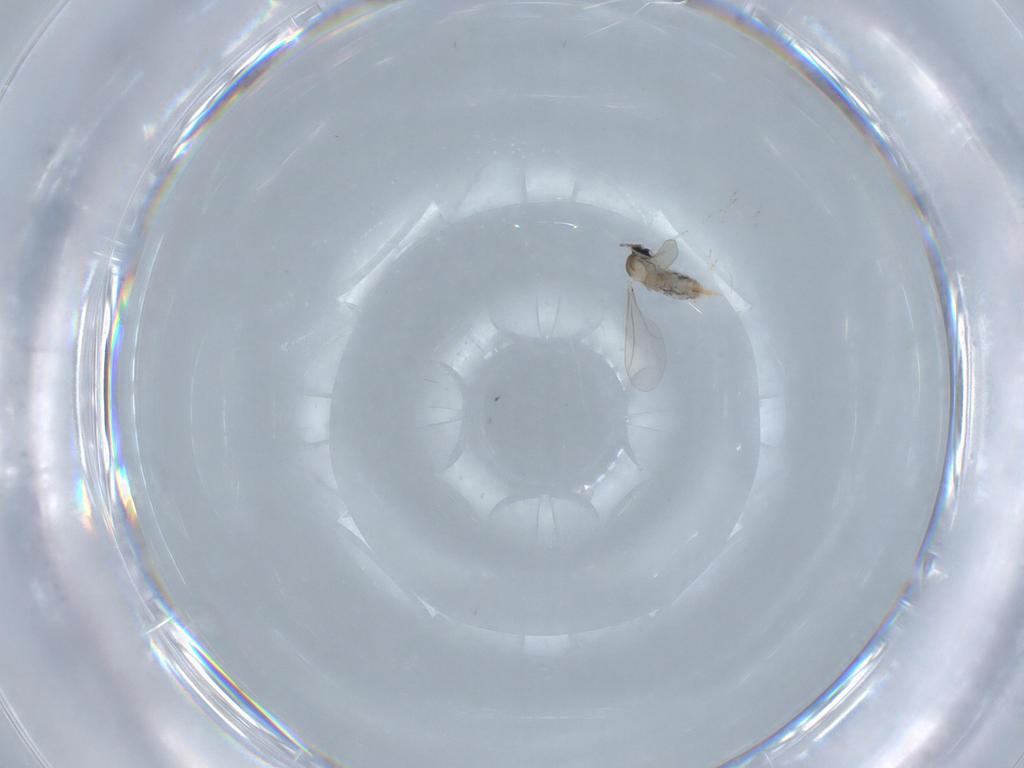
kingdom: Animalia
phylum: Arthropoda
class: Insecta
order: Diptera
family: Cecidomyiidae
